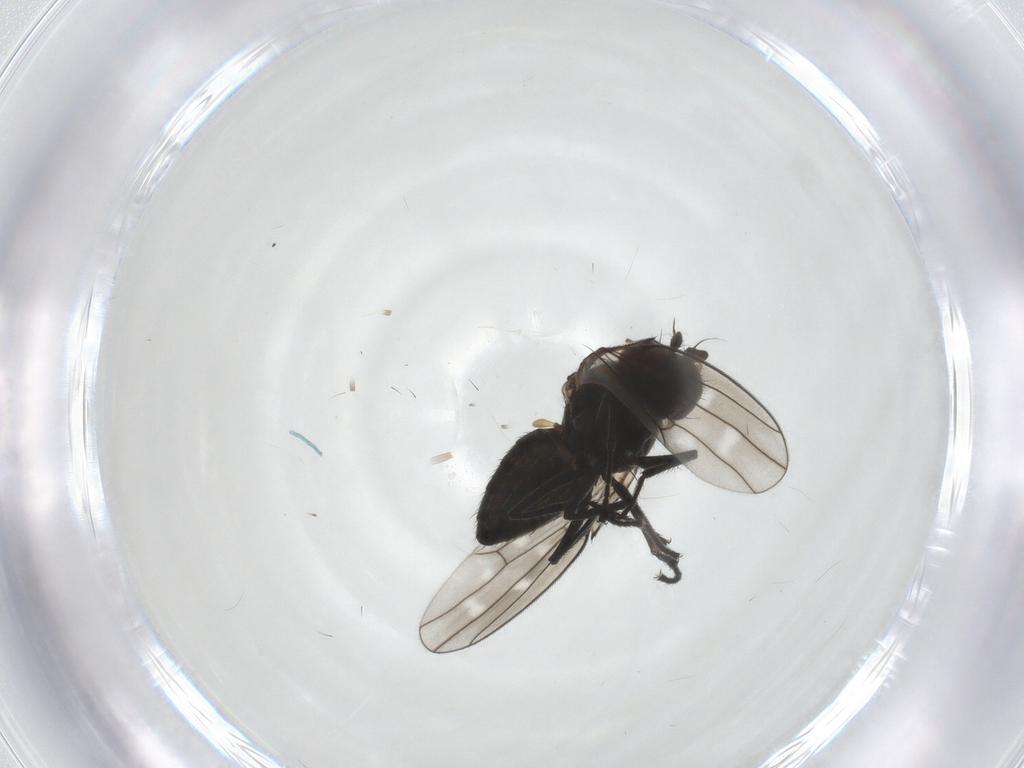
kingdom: Animalia
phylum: Arthropoda
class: Insecta
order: Diptera
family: Ephydridae
